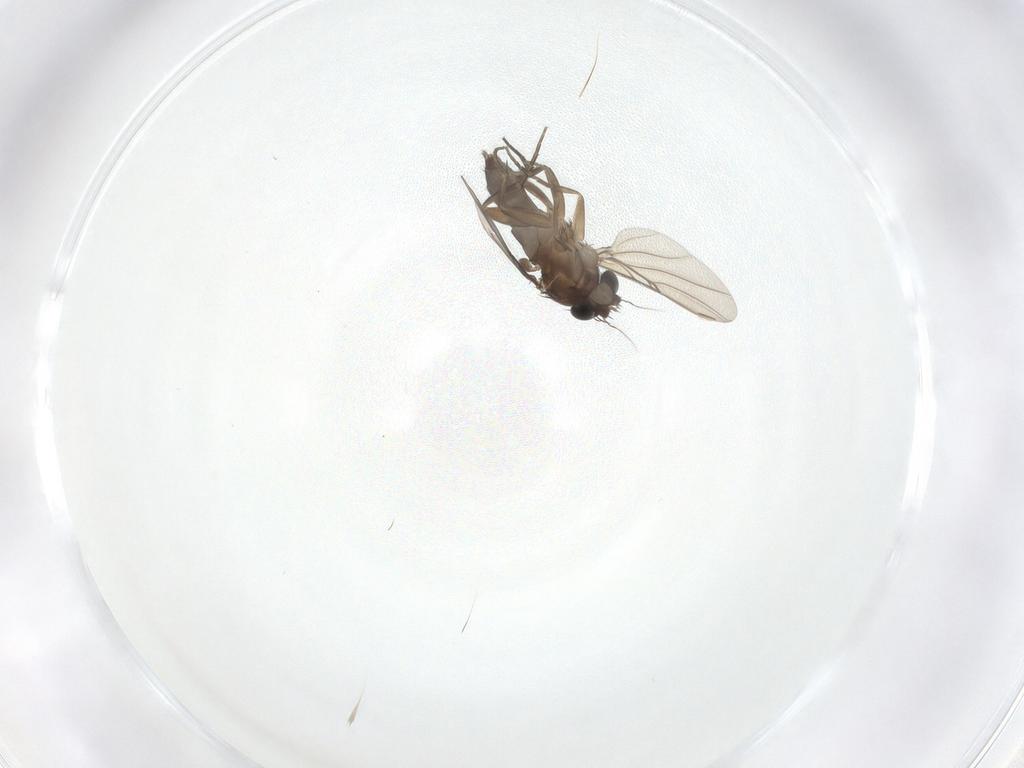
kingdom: Animalia
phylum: Arthropoda
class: Insecta
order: Diptera
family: Phoridae
